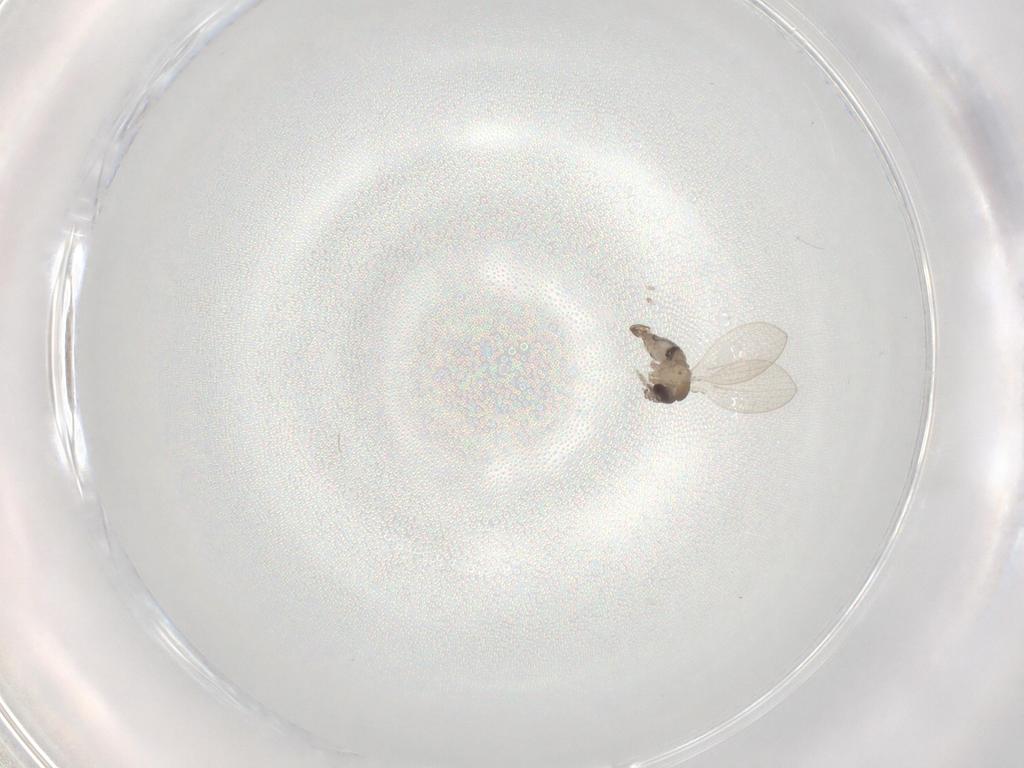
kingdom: Animalia
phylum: Arthropoda
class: Insecta
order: Diptera
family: Psychodidae
